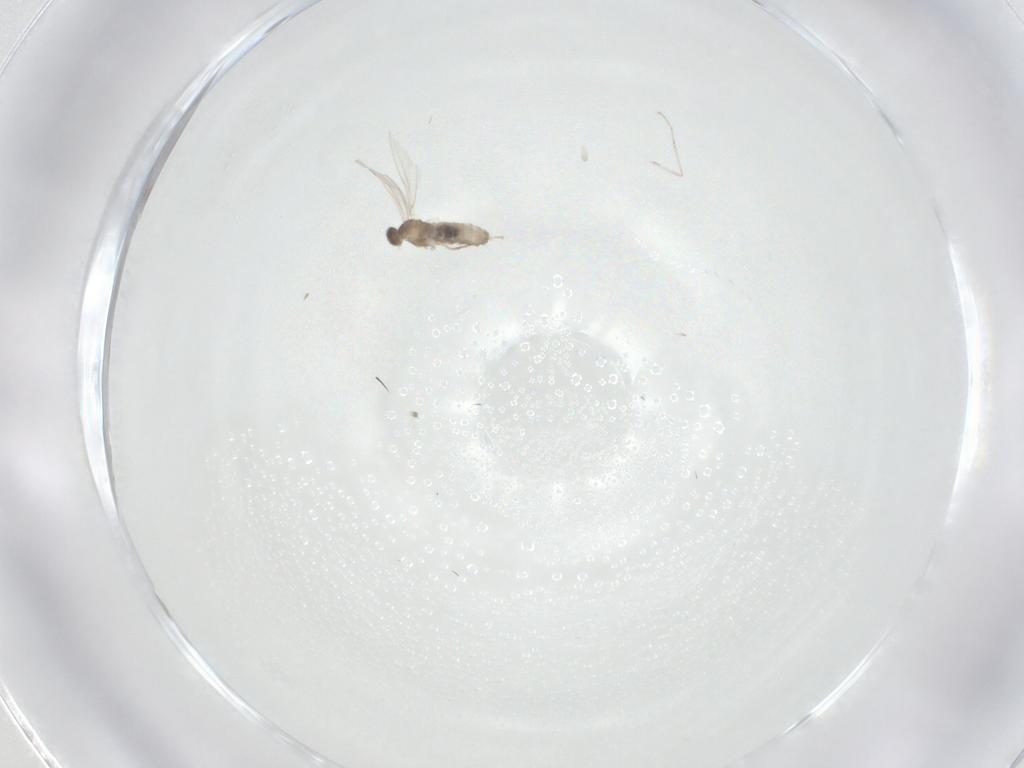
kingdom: Animalia
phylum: Arthropoda
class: Insecta
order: Diptera
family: Cecidomyiidae
